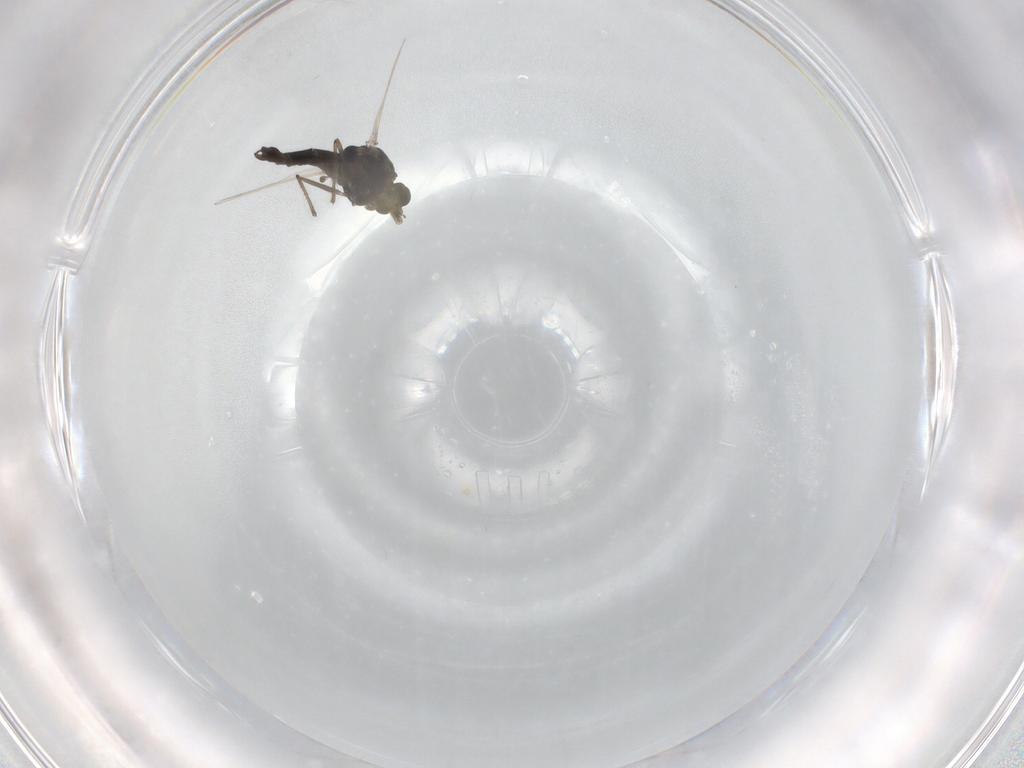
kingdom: Animalia
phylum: Arthropoda
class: Insecta
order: Diptera
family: Chironomidae
